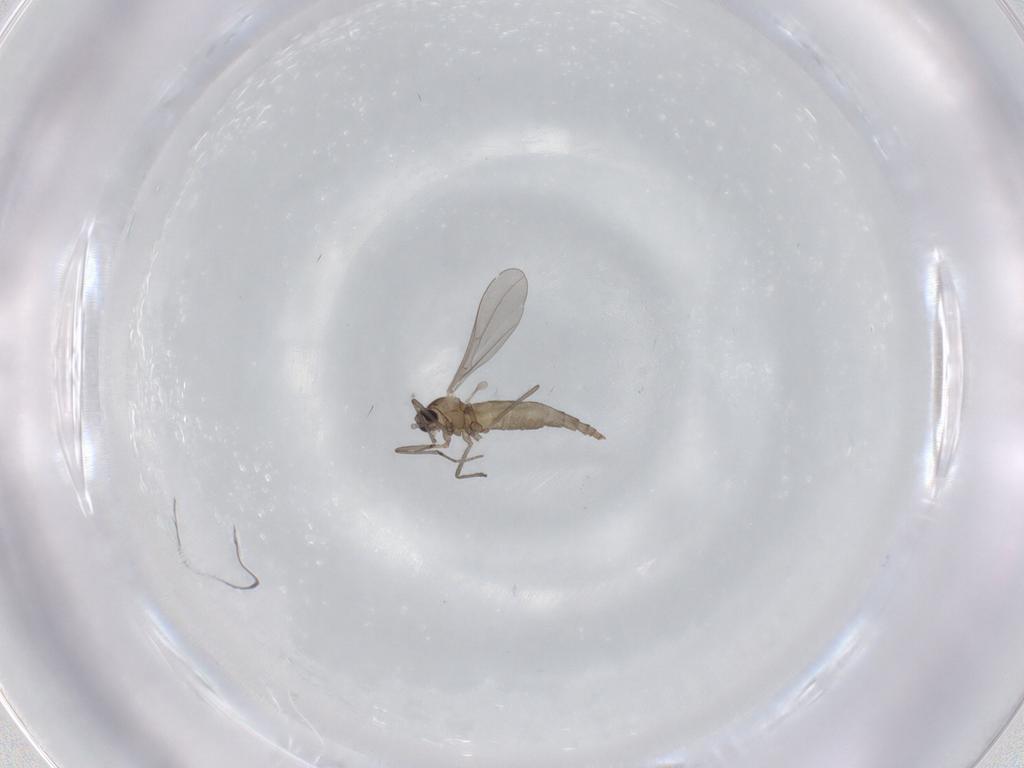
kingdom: Animalia
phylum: Arthropoda
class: Insecta
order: Diptera
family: Cecidomyiidae
